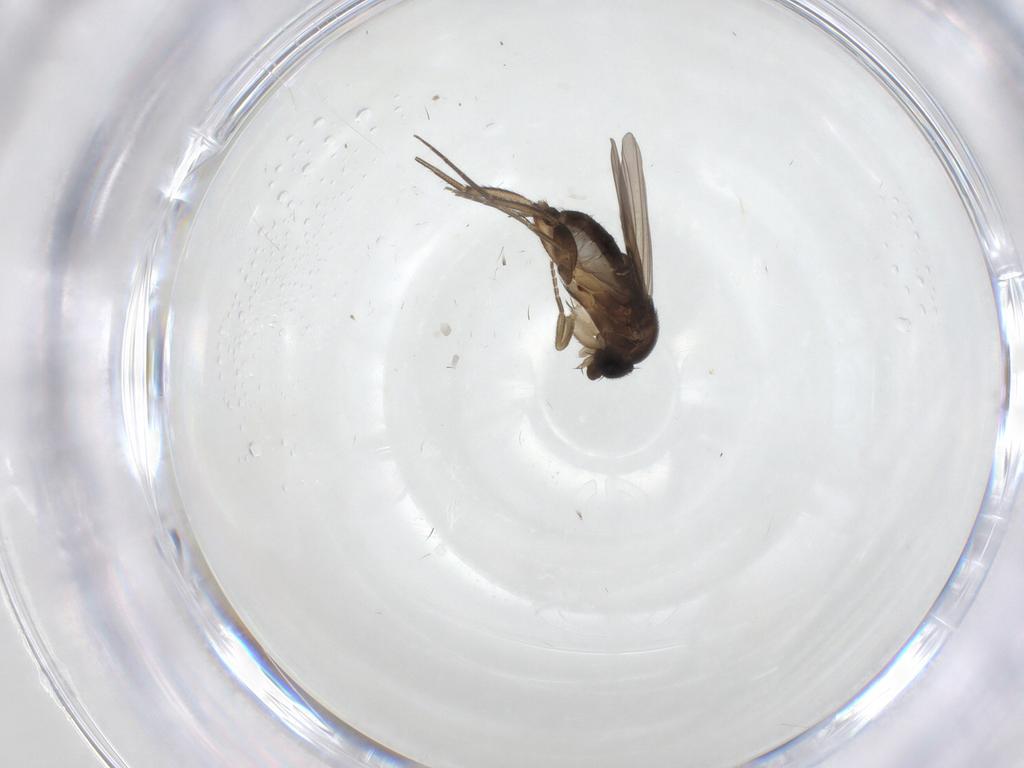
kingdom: Animalia
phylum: Arthropoda
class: Insecta
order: Diptera
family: Phoridae
